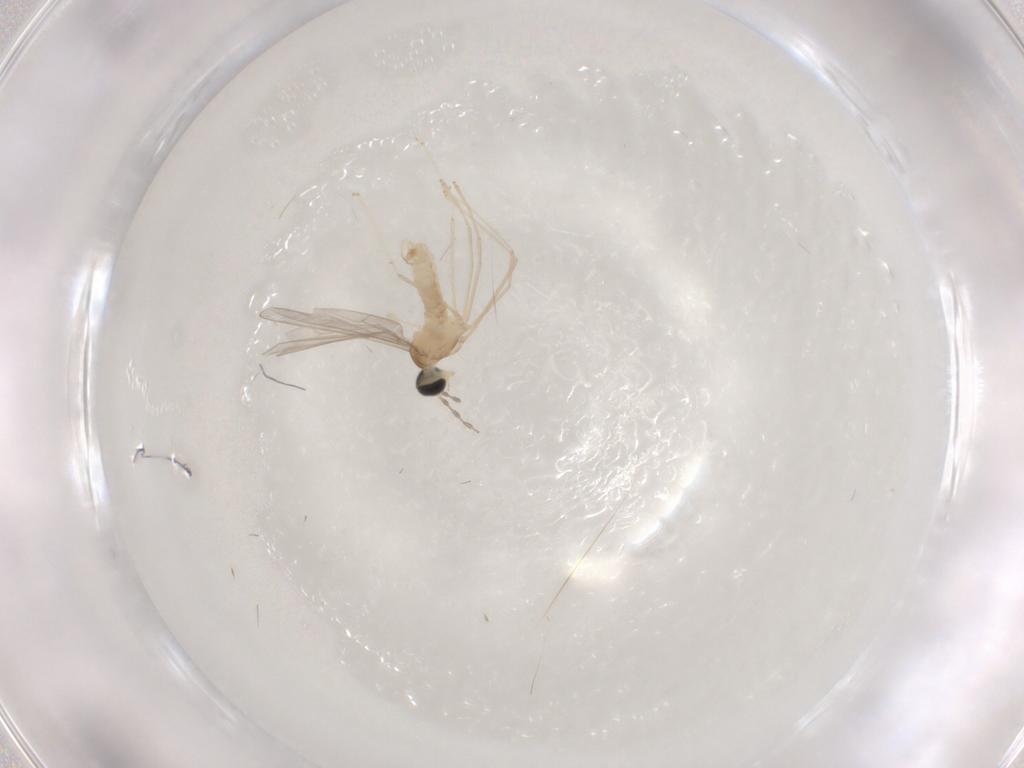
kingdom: Animalia
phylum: Arthropoda
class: Insecta
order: Diptera
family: Cecidomyiidae
